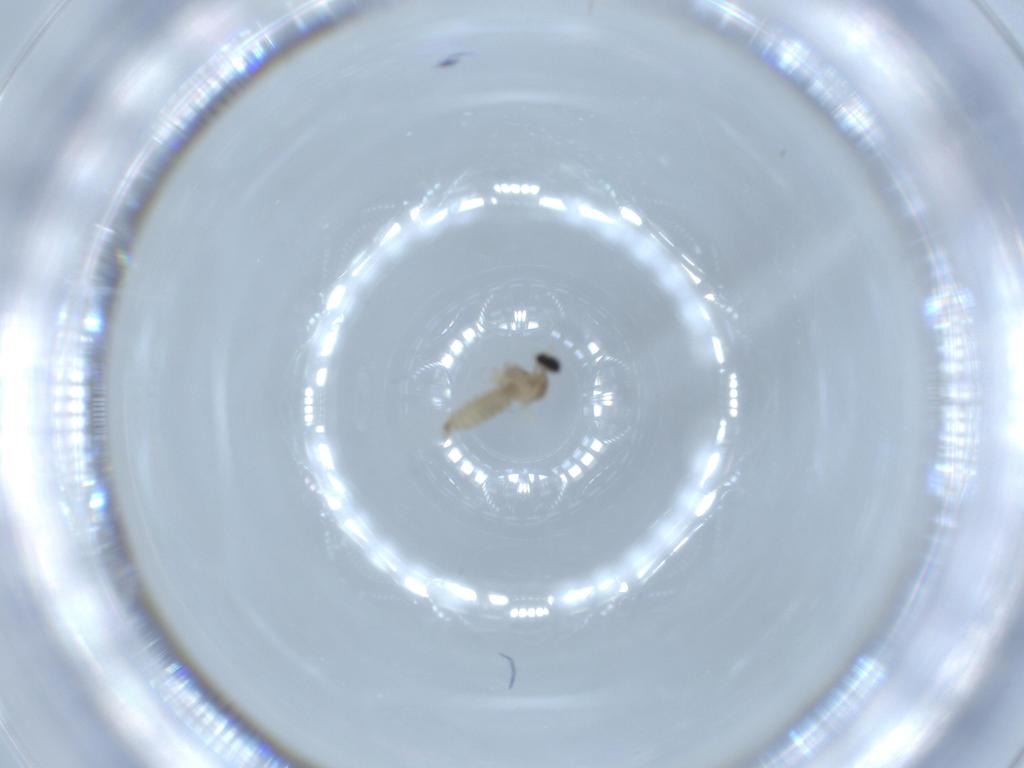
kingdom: Animalia
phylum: Arthropoda
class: Insecta
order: Diptera
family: Cecidomyiidae
